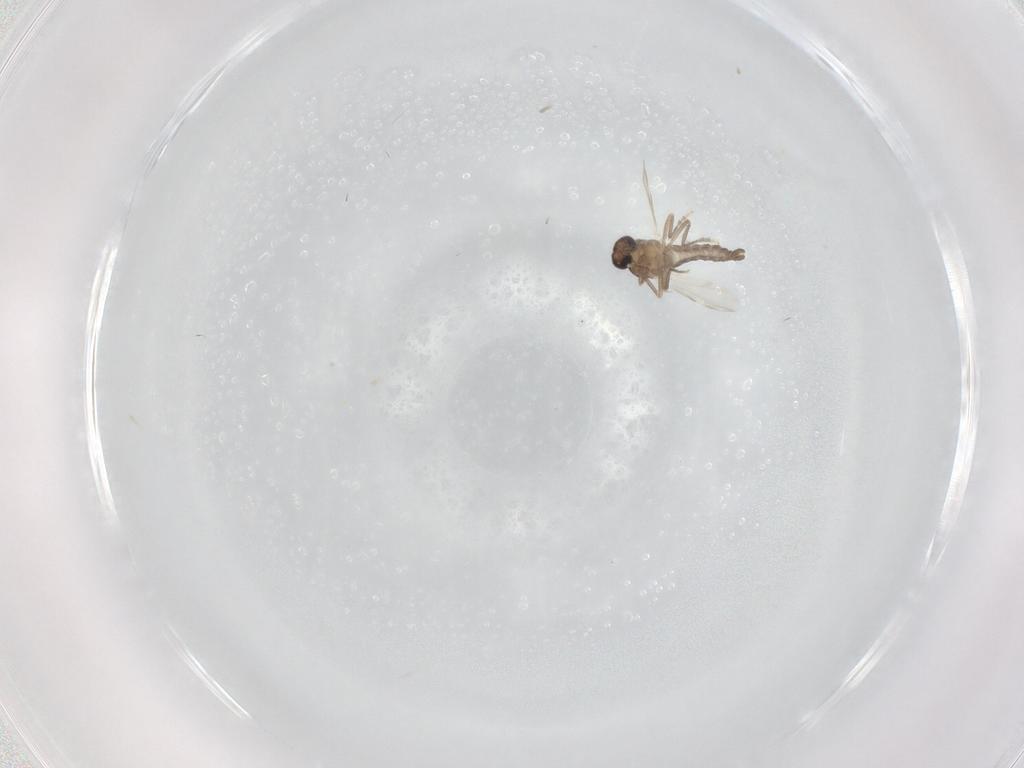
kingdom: Animalia
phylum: Arthropoda
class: Insecta
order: Diptera
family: Ceratopogonidae
